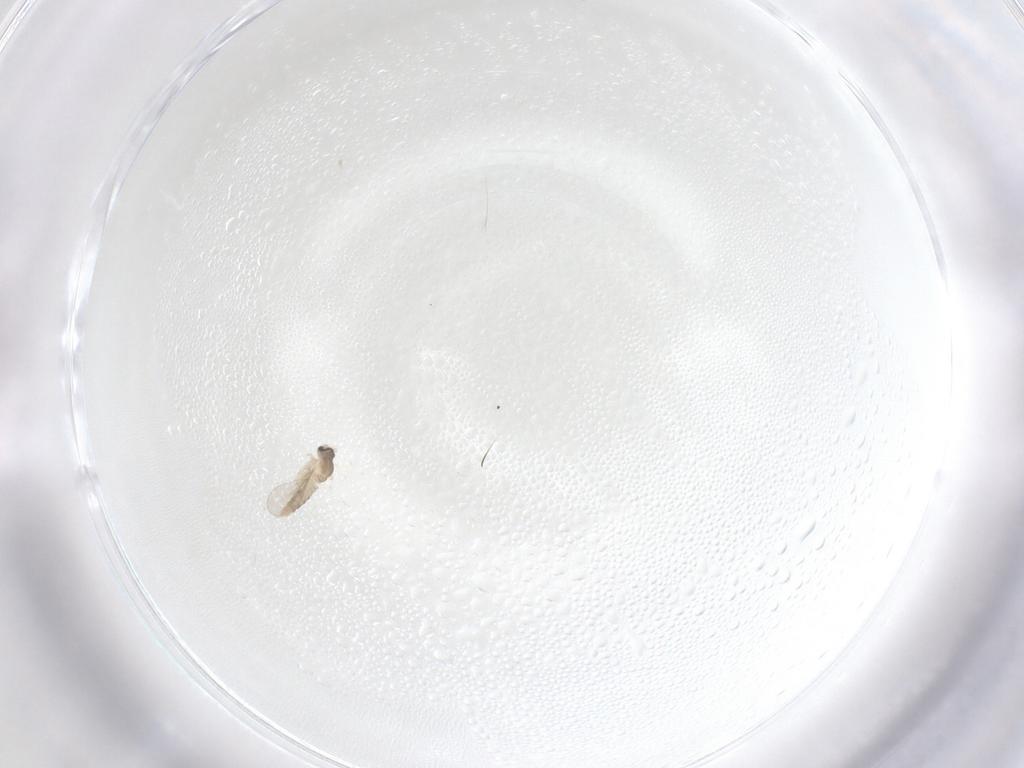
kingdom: Animalia
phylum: Arthropoda
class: Insecta
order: Diptera
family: Cecidomyiidae
